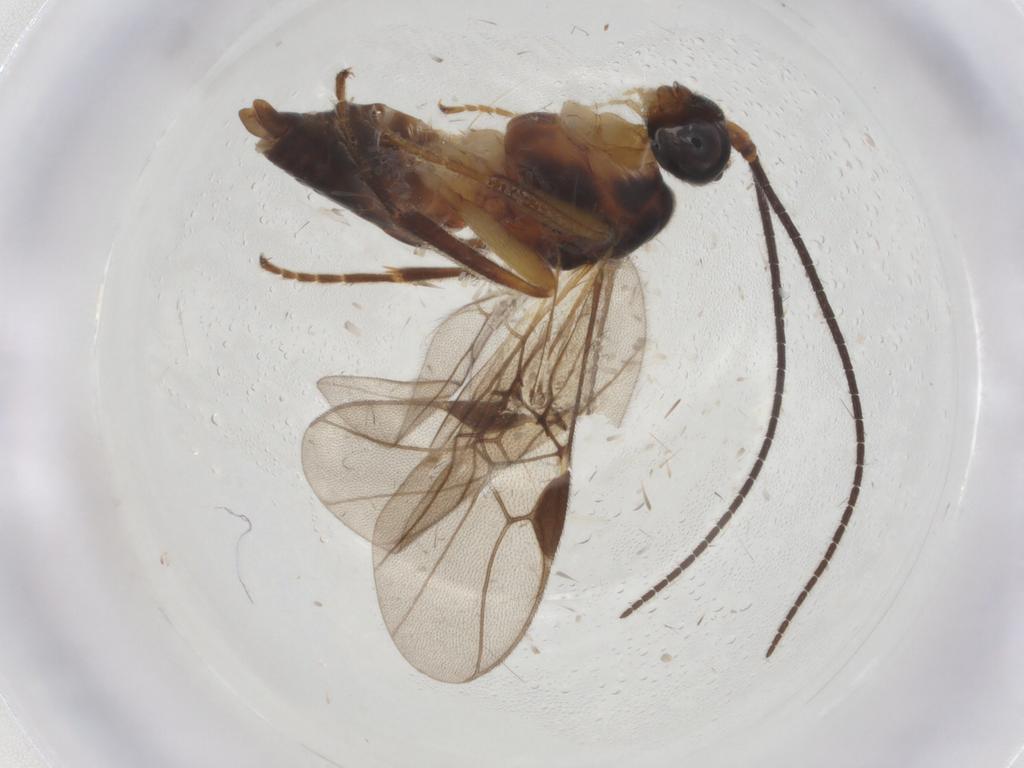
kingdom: Animalia
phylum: Arthropoda
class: Insecta
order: Hymenoptera
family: Braconidae
